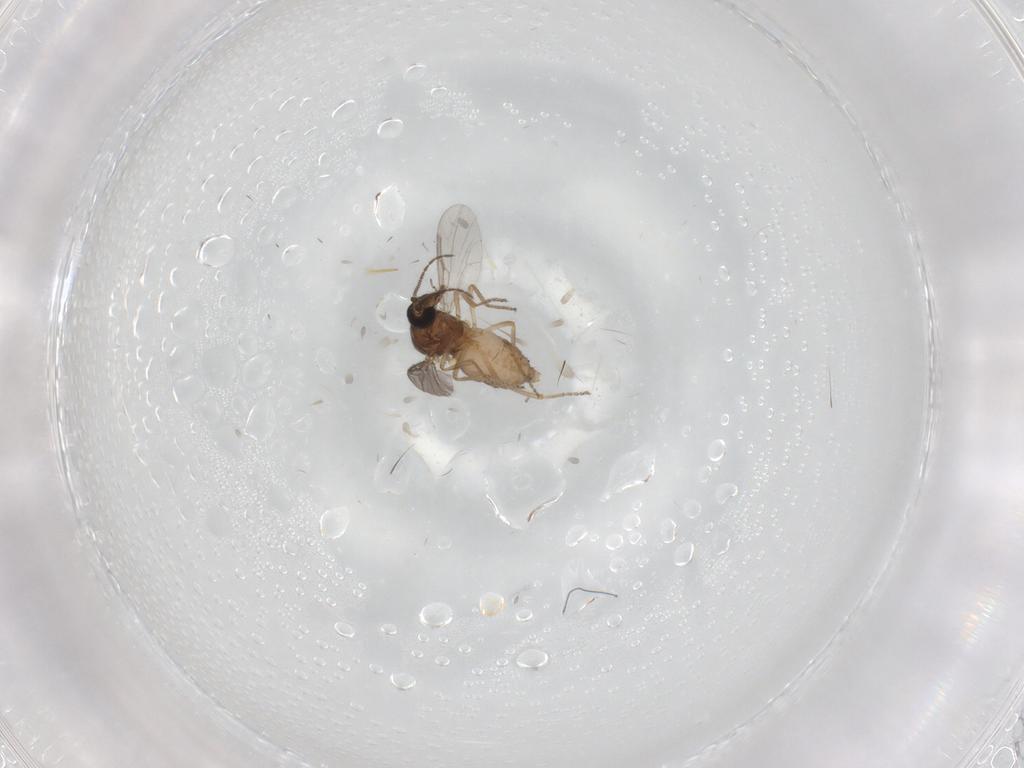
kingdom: Animalia
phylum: Arthropoda
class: Insecta
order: Diptera
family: Ceratopogonidae
